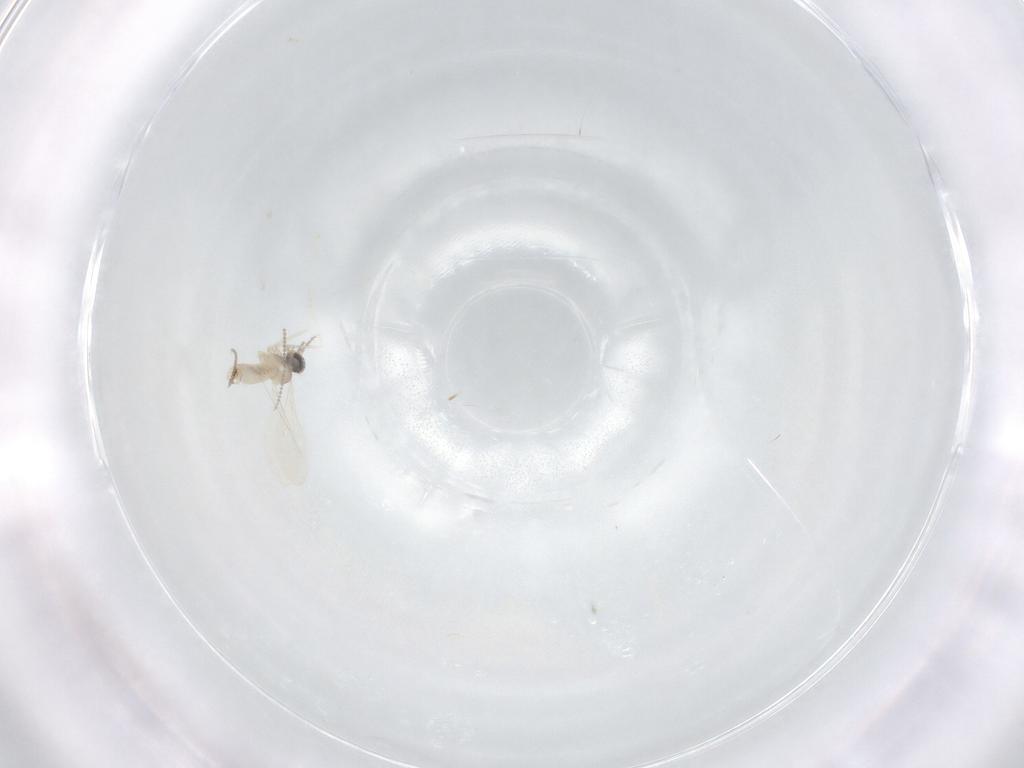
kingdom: Animalia
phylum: Arthropoda
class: Insecta
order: Diptera
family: Cecidomyiidae
